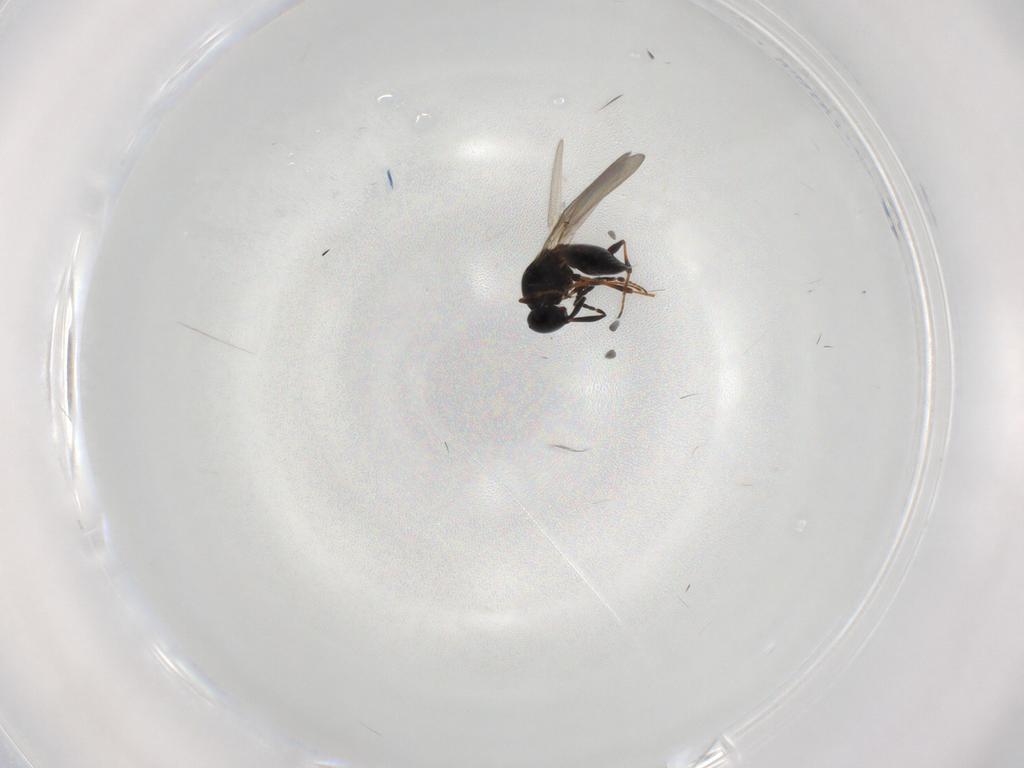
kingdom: Animalia
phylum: Arthropoda
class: Insecta
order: Hymenoptera
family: Platygastridae
